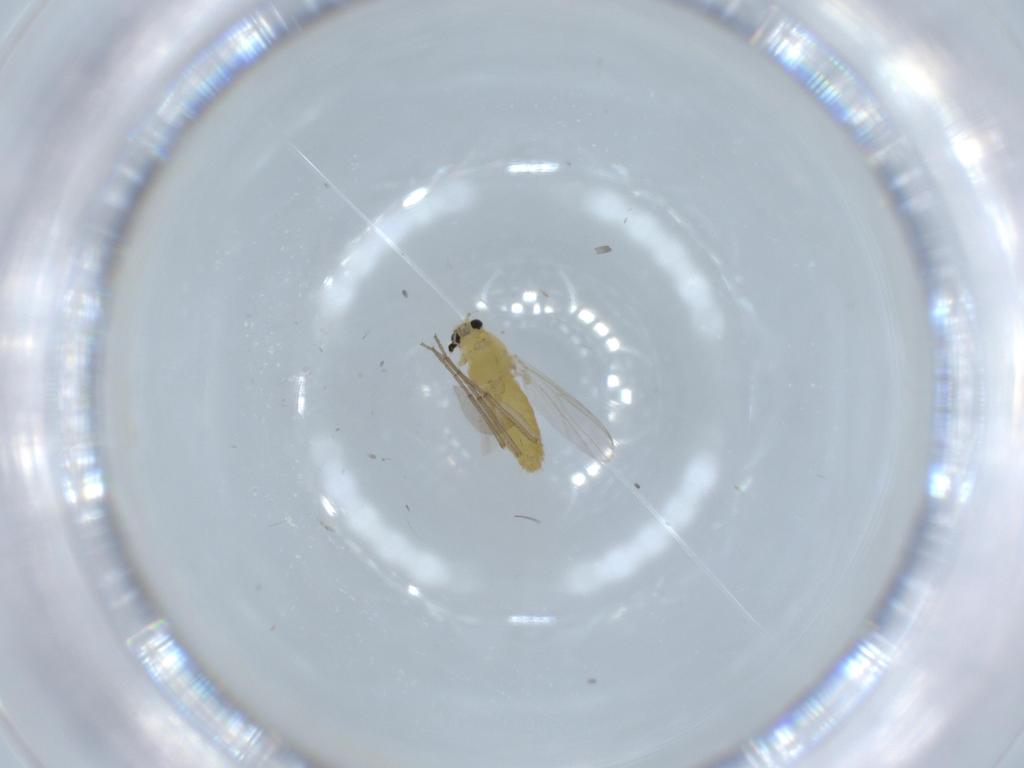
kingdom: Animalia
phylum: Arthropoda
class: Insecta
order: Diptera
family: Chironomidae
